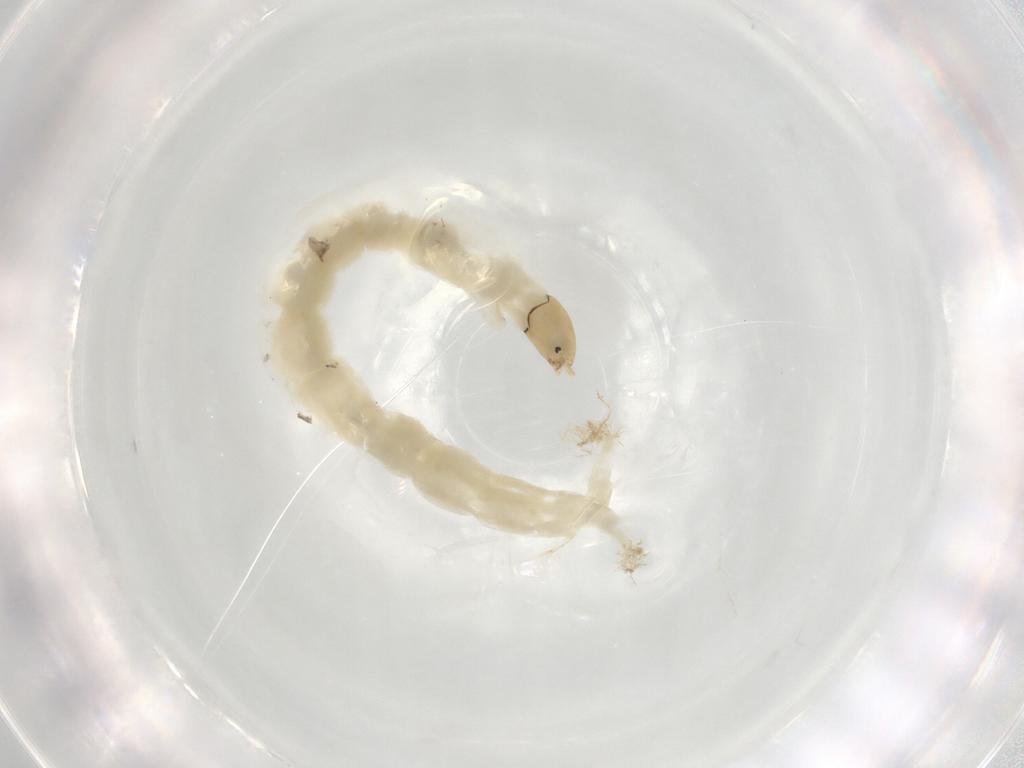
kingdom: Animalia
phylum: Arthropoda
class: Insecta
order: Diptera
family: Chironomidae
